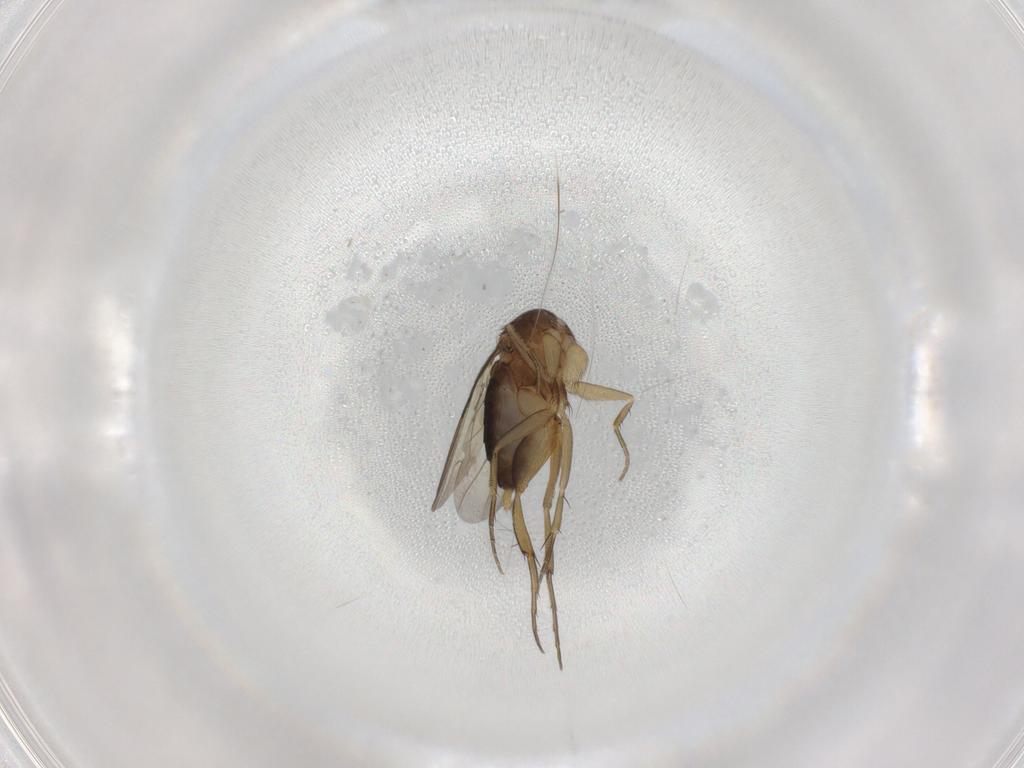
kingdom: Animalia
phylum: Arthropoda
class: Insecta
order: Diptera
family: Phoridae
